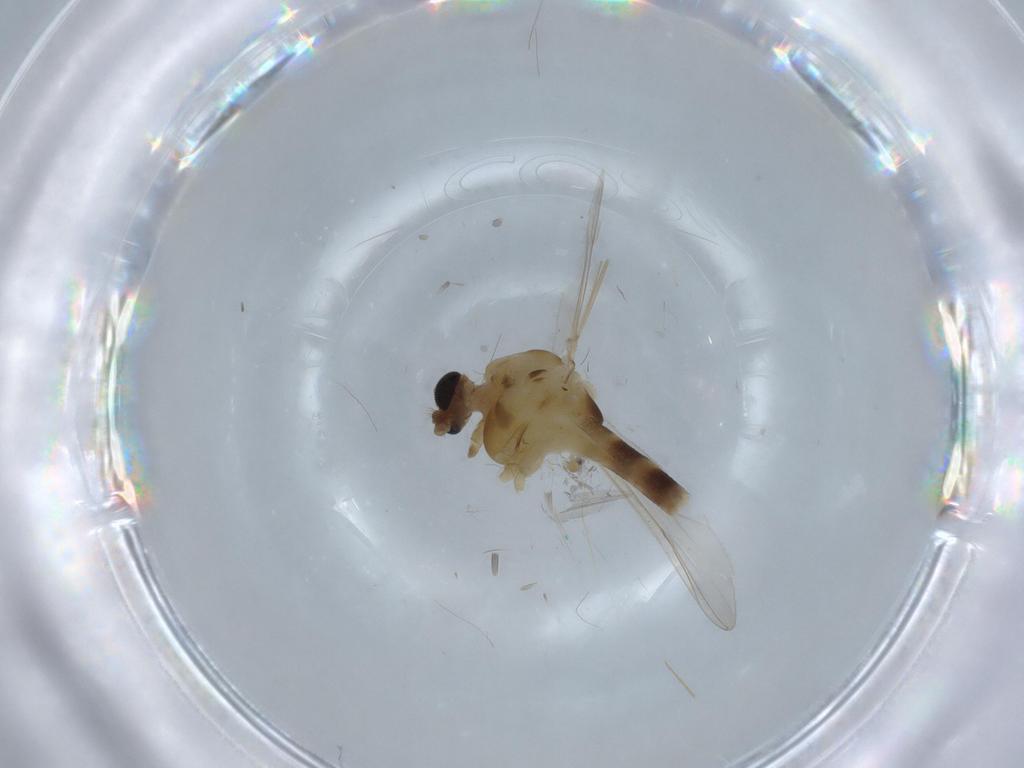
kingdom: Animalia
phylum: Arthropoda
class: Insecta
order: Diptera
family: Chironomidae
